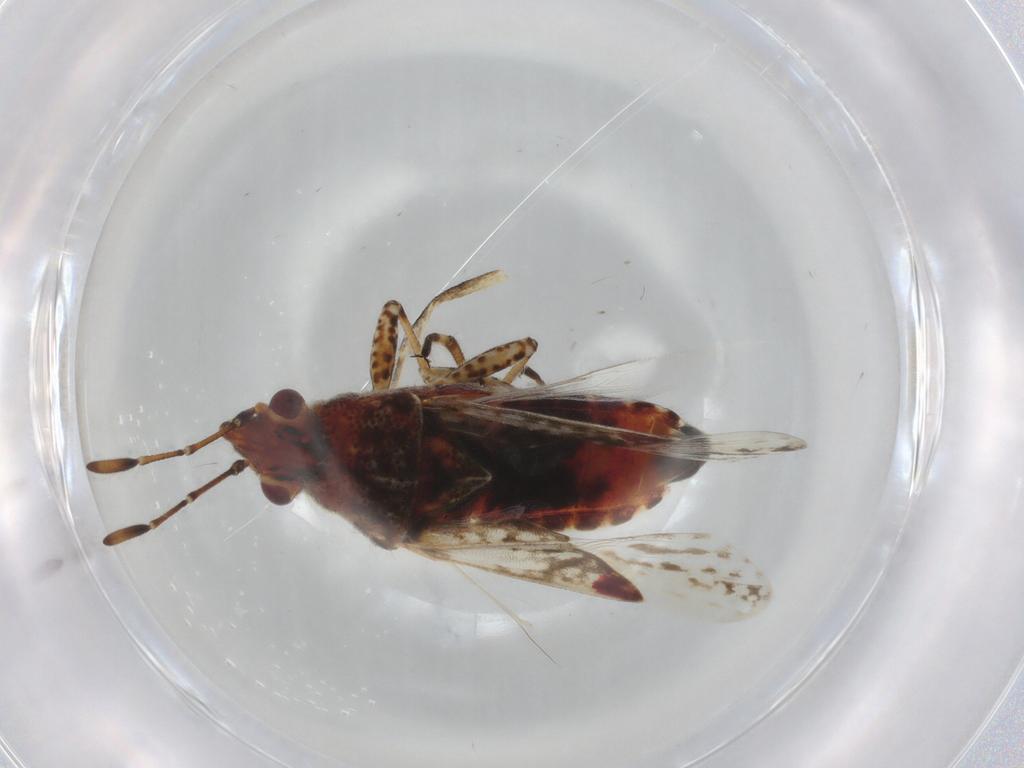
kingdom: Animalia
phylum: Arthropoda
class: Insecta
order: Hemiptera
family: Lygaeidae
